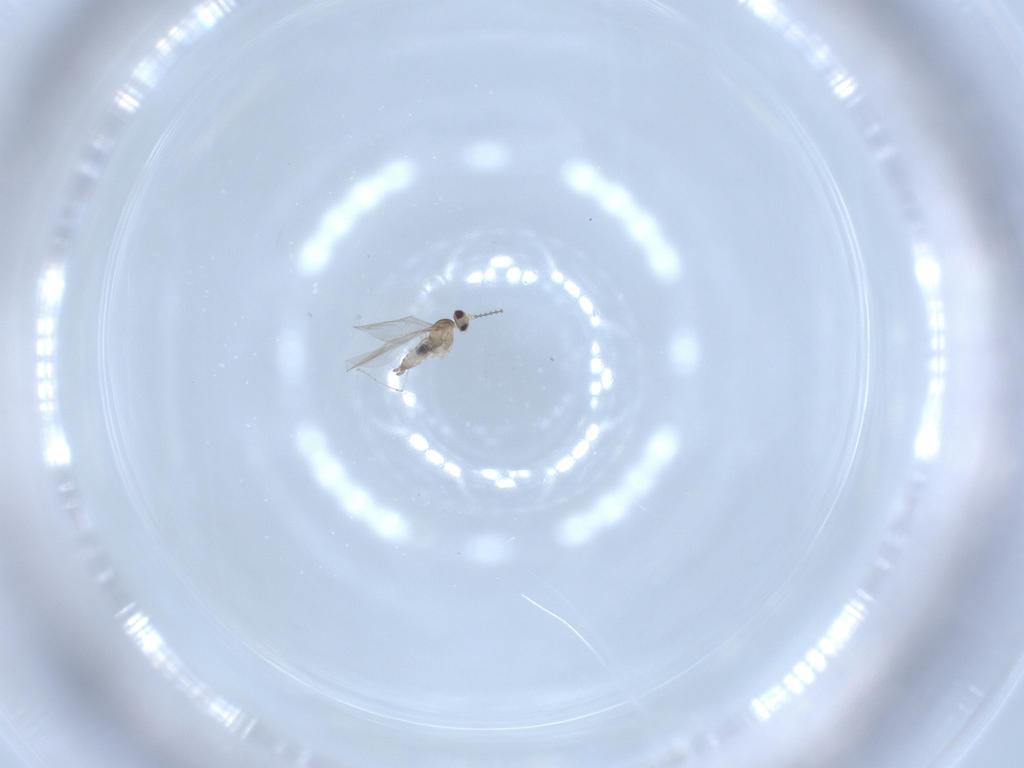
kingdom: Animalia
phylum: Arthropoda
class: Insecta
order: Diptera
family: Cecidomyiidae
